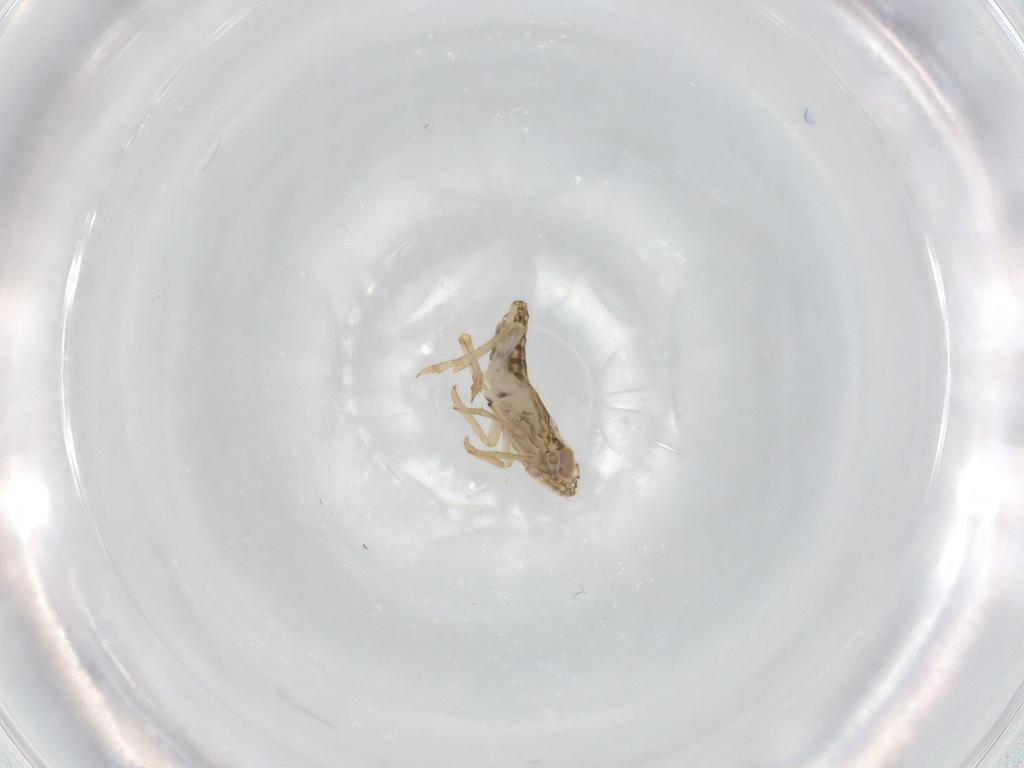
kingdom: Animalia
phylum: Arthropoda
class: Insecta
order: Hemiptera
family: Delphacidae
